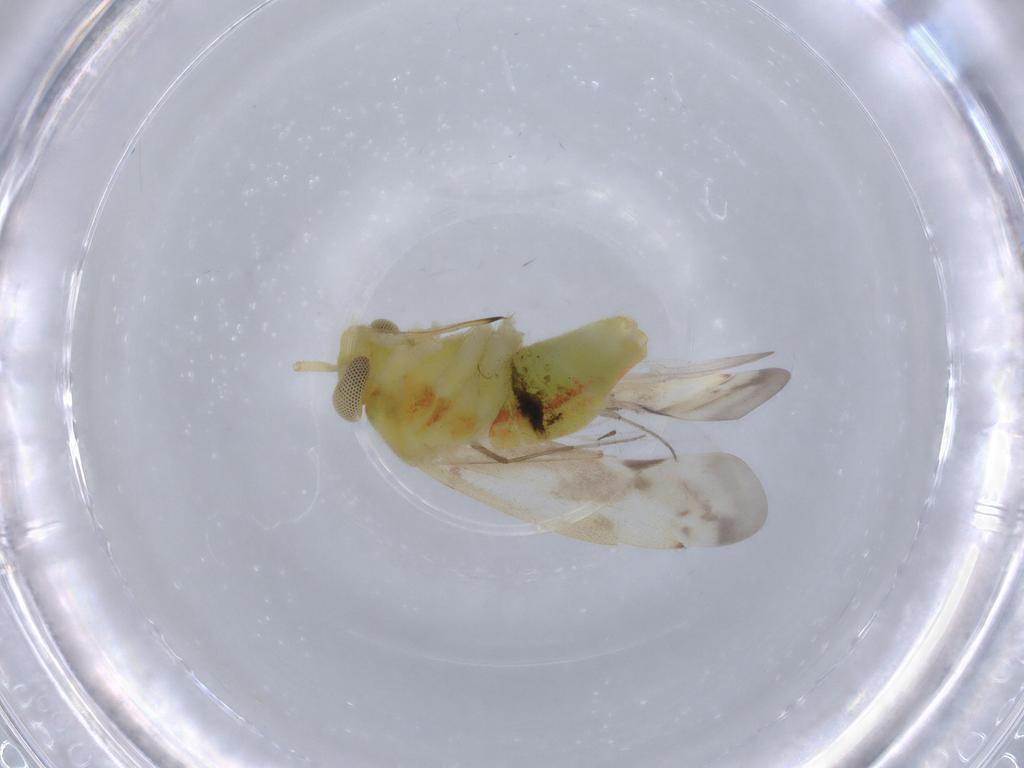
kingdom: Animalia
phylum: Arthropoda
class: Insecta
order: Hemiptera
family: Miridae
